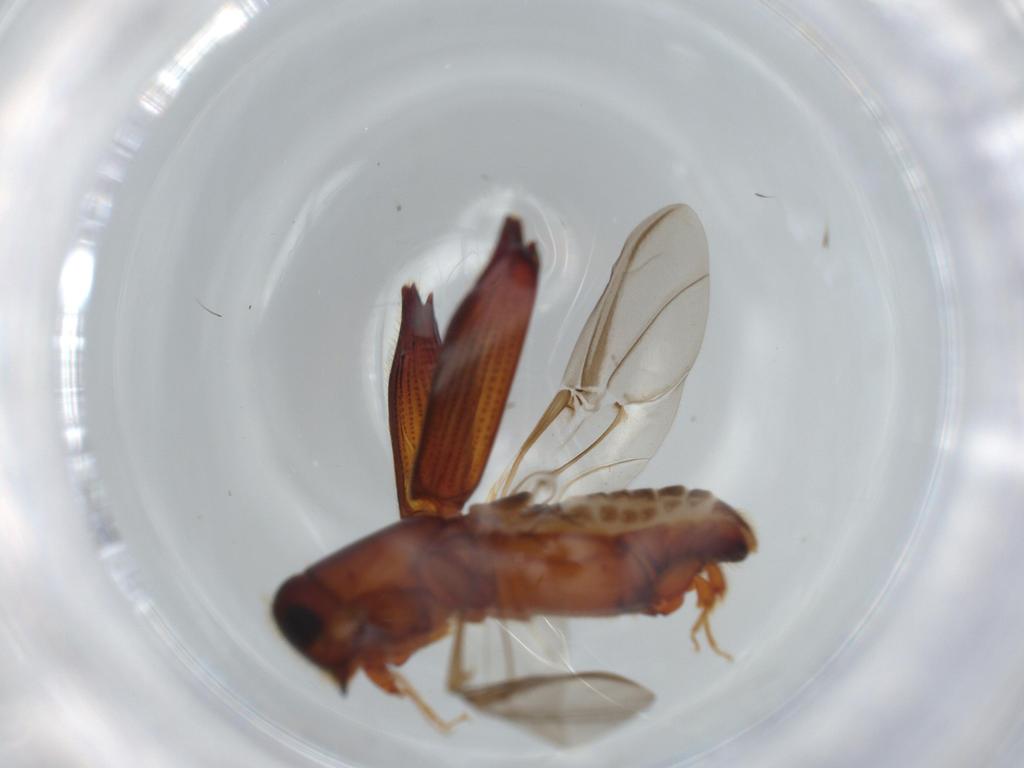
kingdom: Animalia
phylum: Arthropoda
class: Insecta
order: Coleoptera
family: Curculionidae
